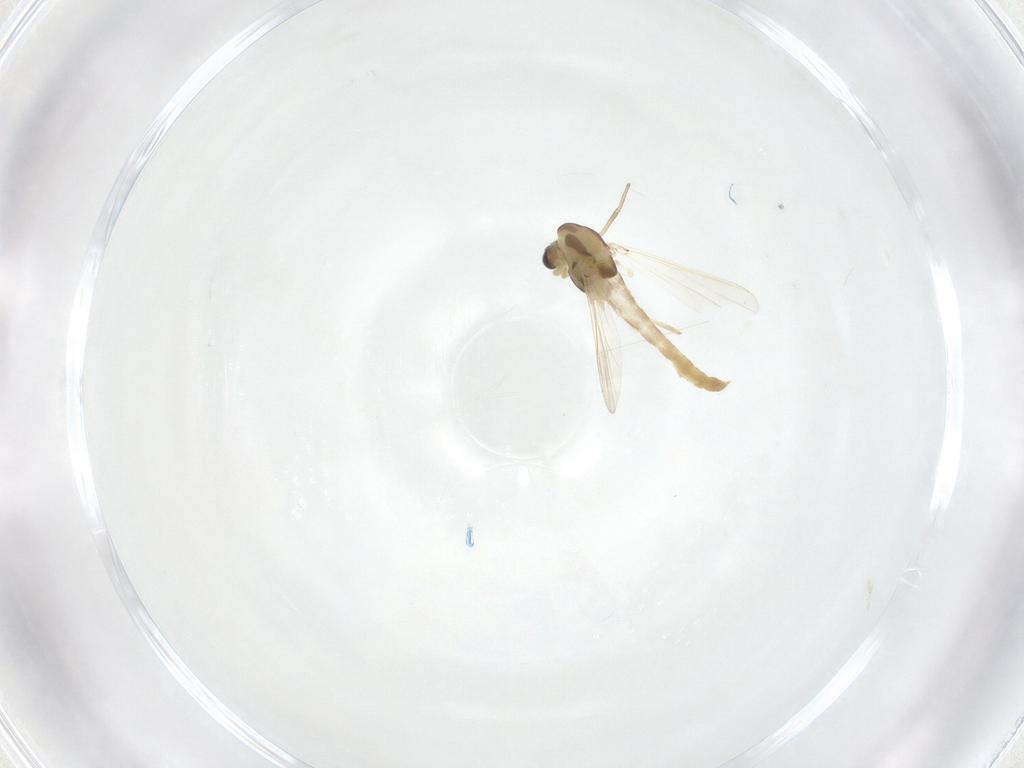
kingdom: Animalia
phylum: Arthropoda
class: Insecta
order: Diptera
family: Chironomidae
